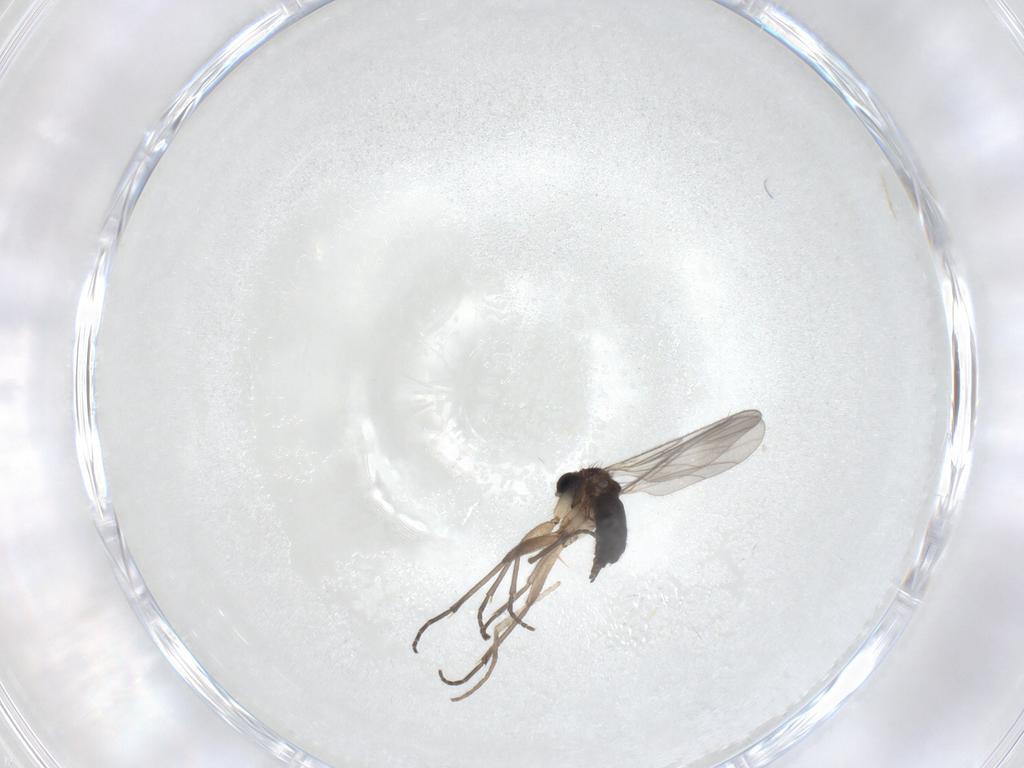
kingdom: Animalia
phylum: Arthropoda
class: Insecta
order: Diptera
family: Cecidomyiidae
